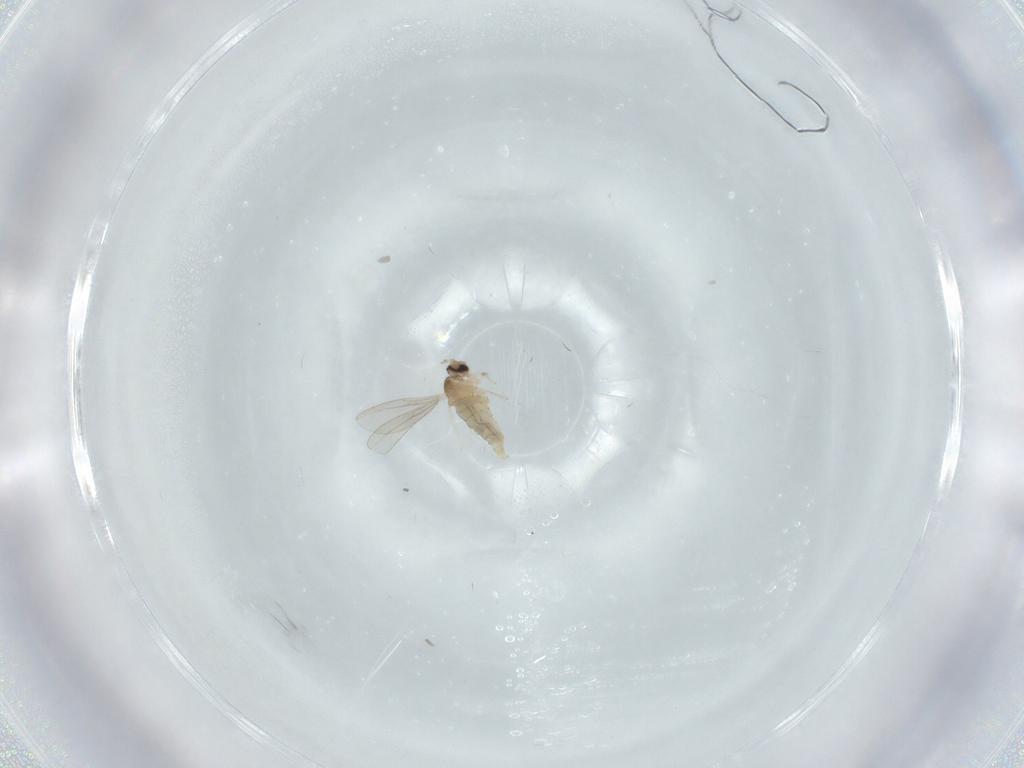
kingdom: Animalia
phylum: Arthropoda
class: Insecta
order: Diptera
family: Cecidomyiidae
